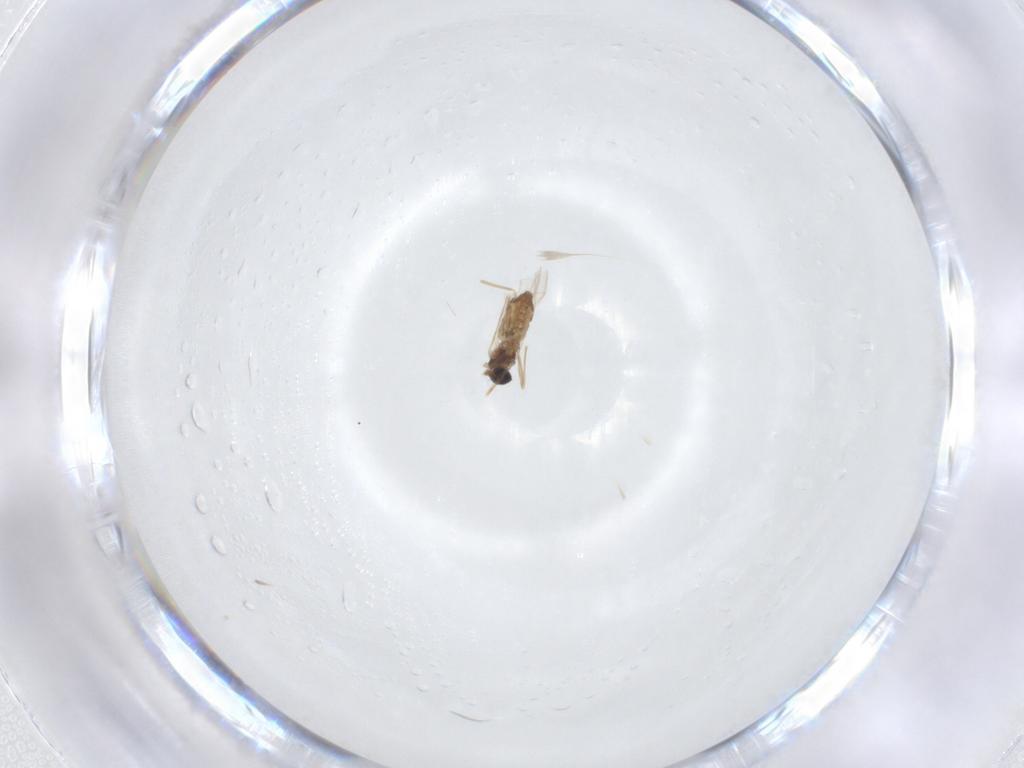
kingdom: Animalia
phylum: Arthropoda
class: Insecta
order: Diptera
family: Cecidomyiidae
